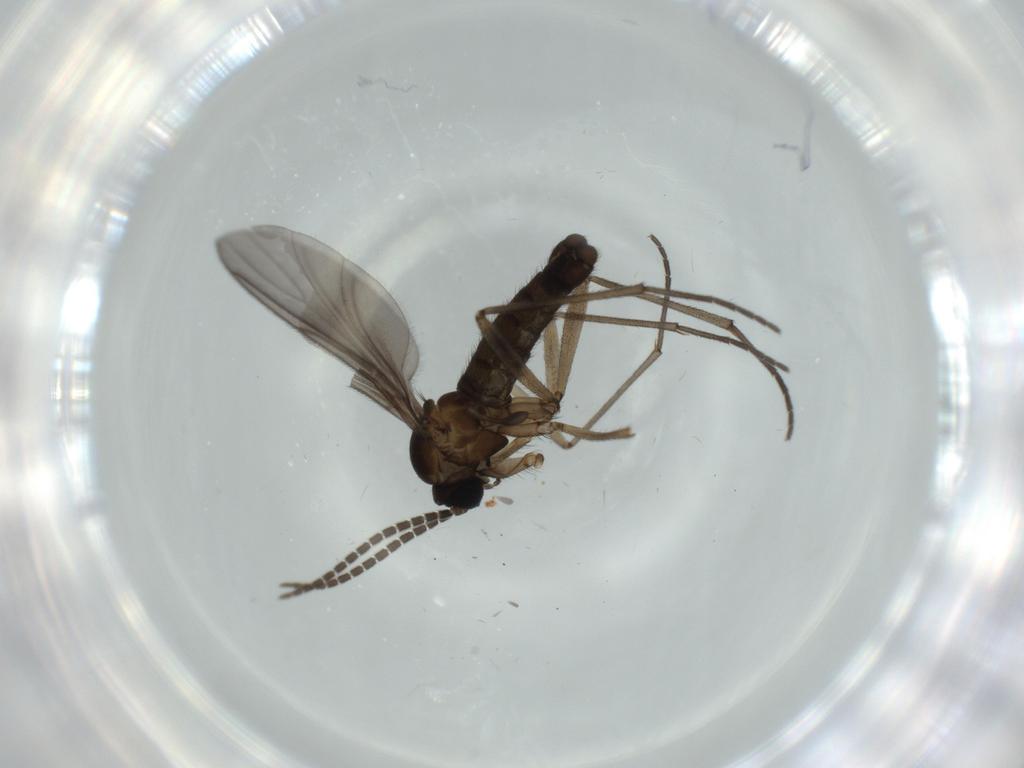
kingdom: Animalia
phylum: Arthropoda
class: Insecta
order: Diptera
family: Sciaridae
